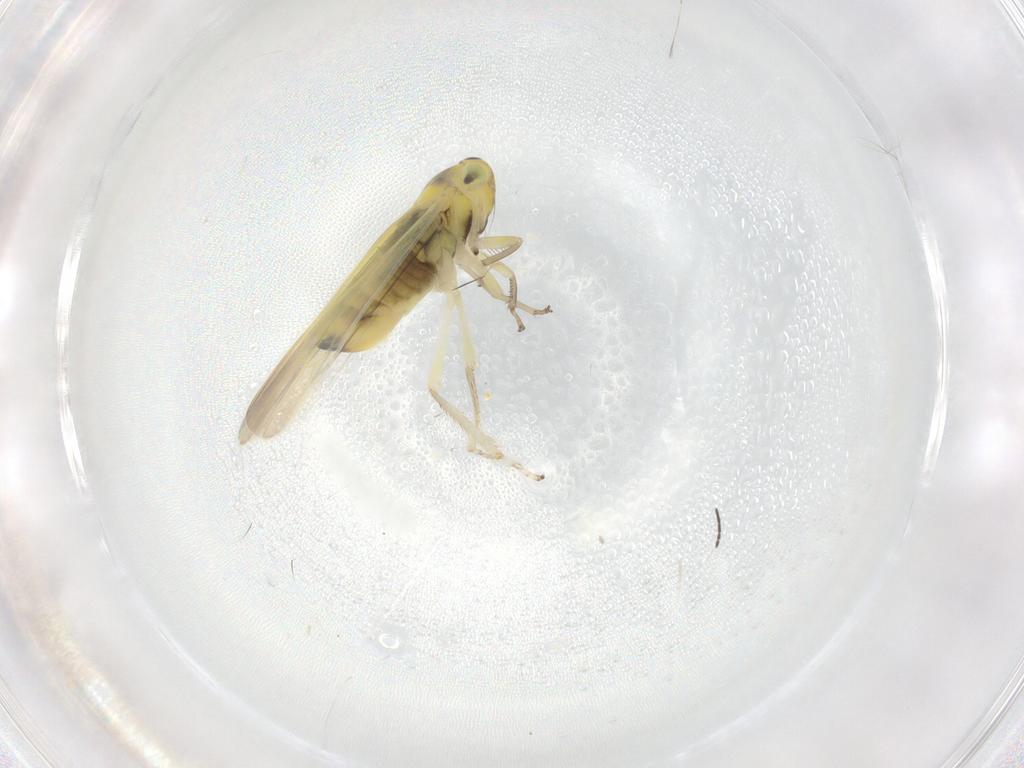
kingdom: Animalia
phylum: Arthropoda
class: Insecta
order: Hemiptera
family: Cicadellidae
